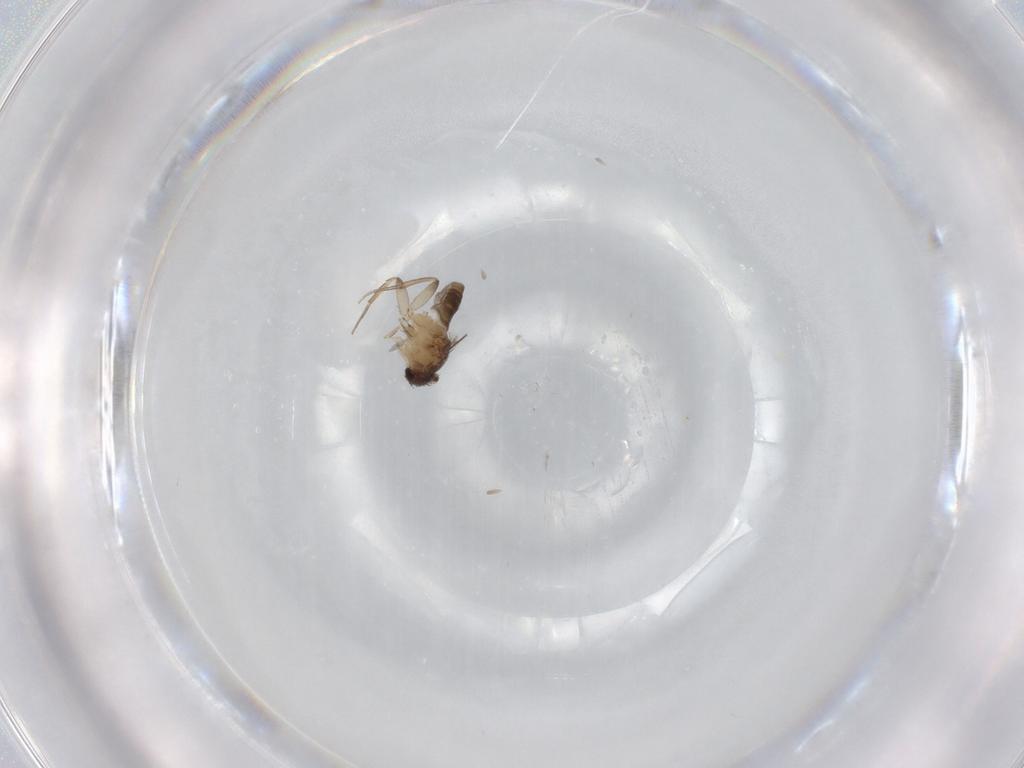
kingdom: Animalia
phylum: Arthropoda
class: Insecta
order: Diptera
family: Phoridae
